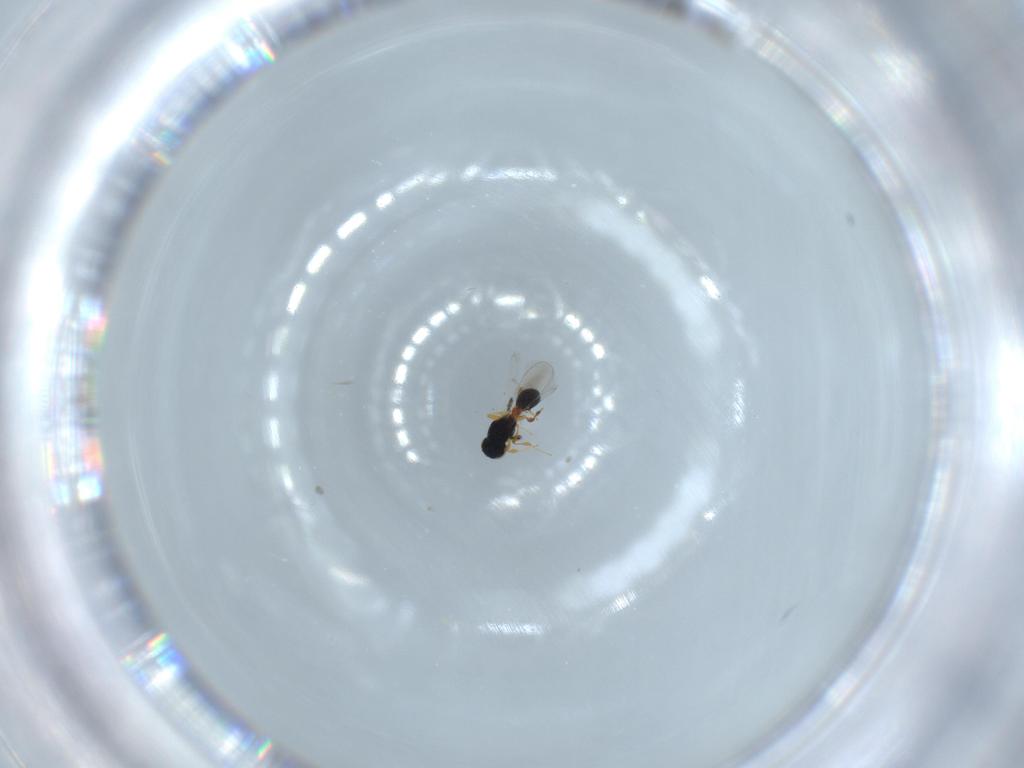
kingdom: Animalia
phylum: Arthropoda
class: Insecta
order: Hymenoptera
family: Platygastridae
